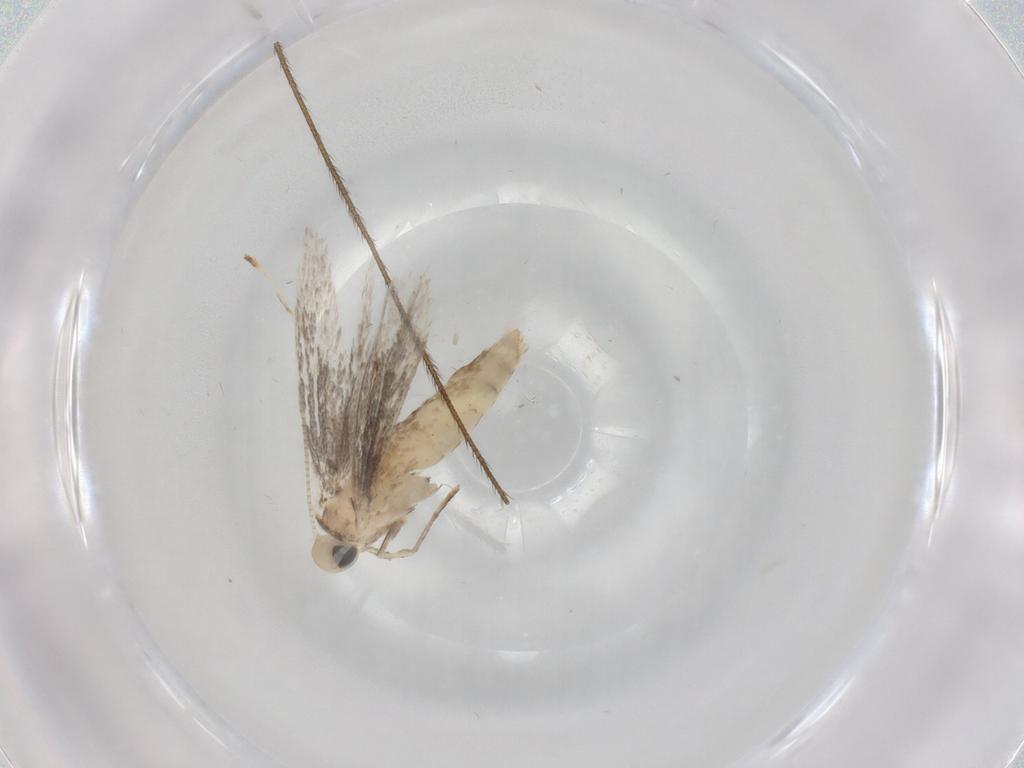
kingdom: Animalia
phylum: Arthropoda
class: Insecta
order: Lepidoptera
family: Gracillariidae
